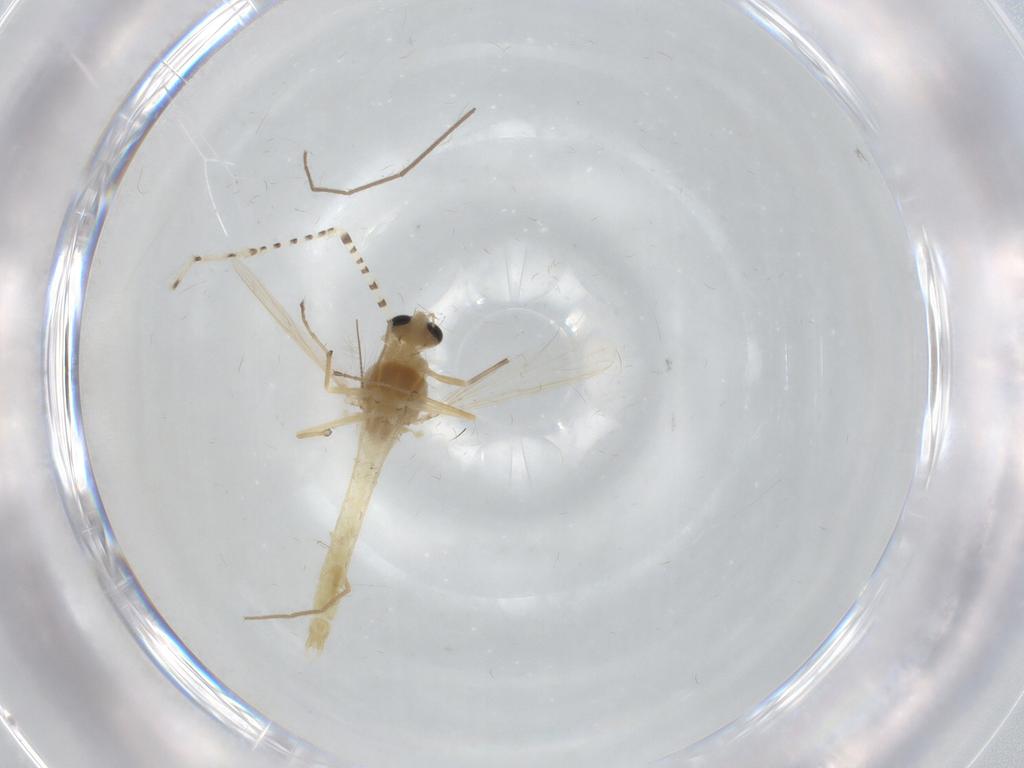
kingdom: Animalia
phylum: Arthropoda
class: Insecta
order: Diptera
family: Chironomidae
